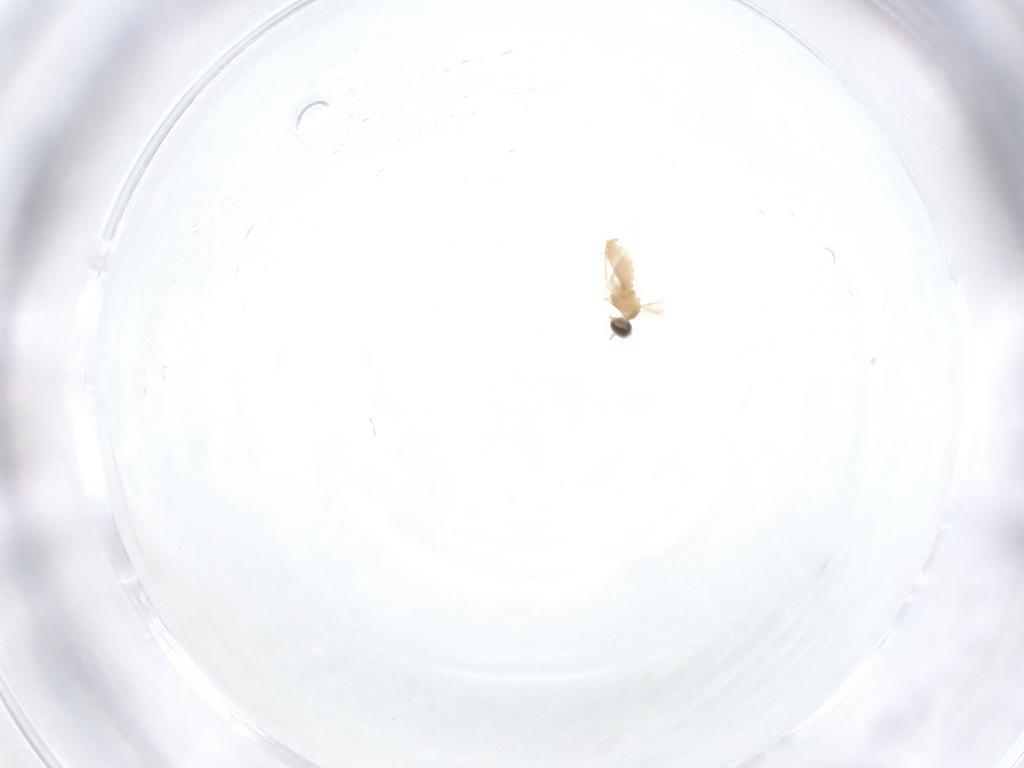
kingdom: Animalia
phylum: Arthropoda
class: Insecta
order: Diptera
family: Cecidomyiidae
